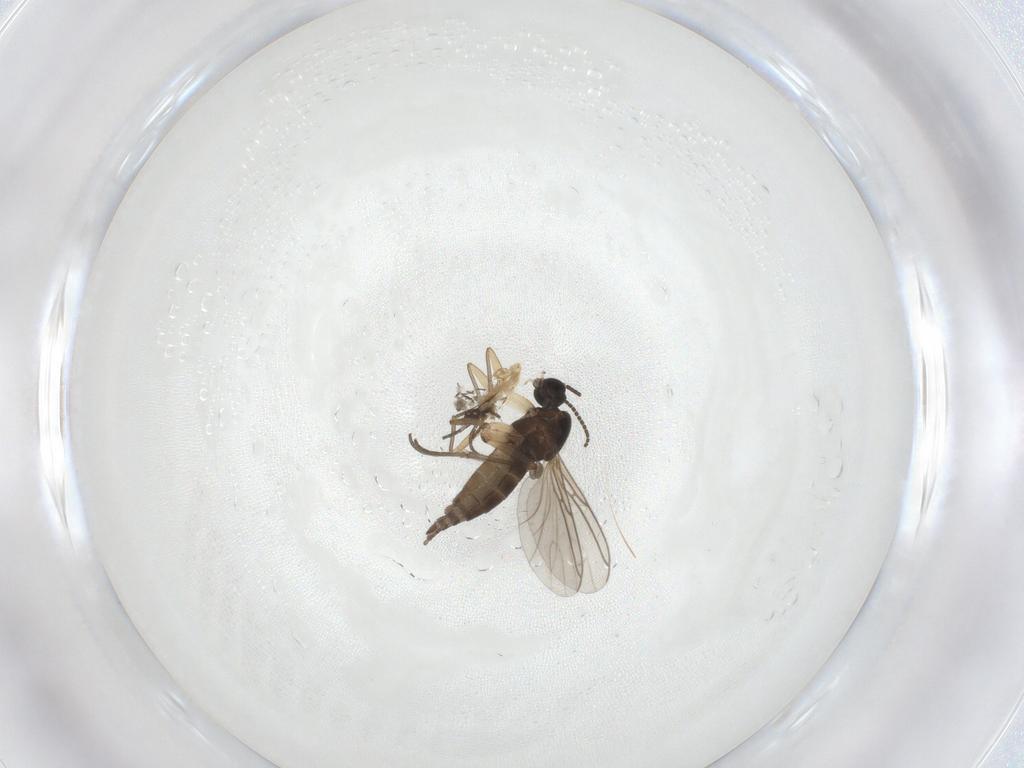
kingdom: Animalia
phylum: Arthropoda
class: Insecta
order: Diptera
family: Sciaridae
